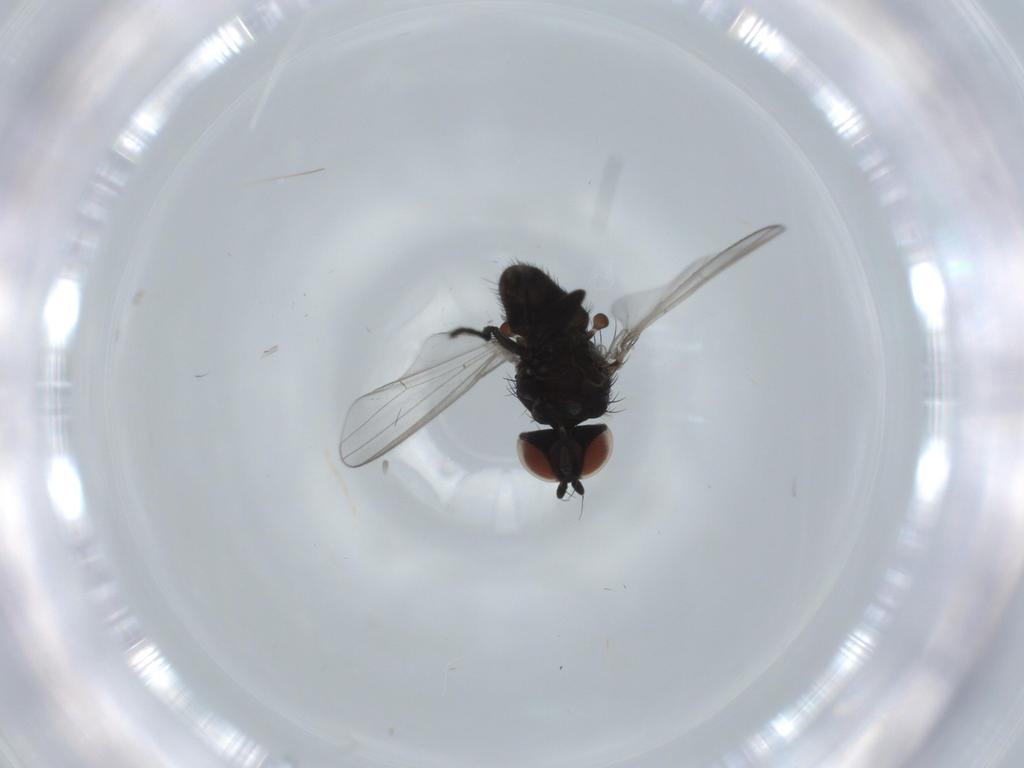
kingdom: Animalia
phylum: Arthropoda
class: Insecta
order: Diptera
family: Milichiidae
